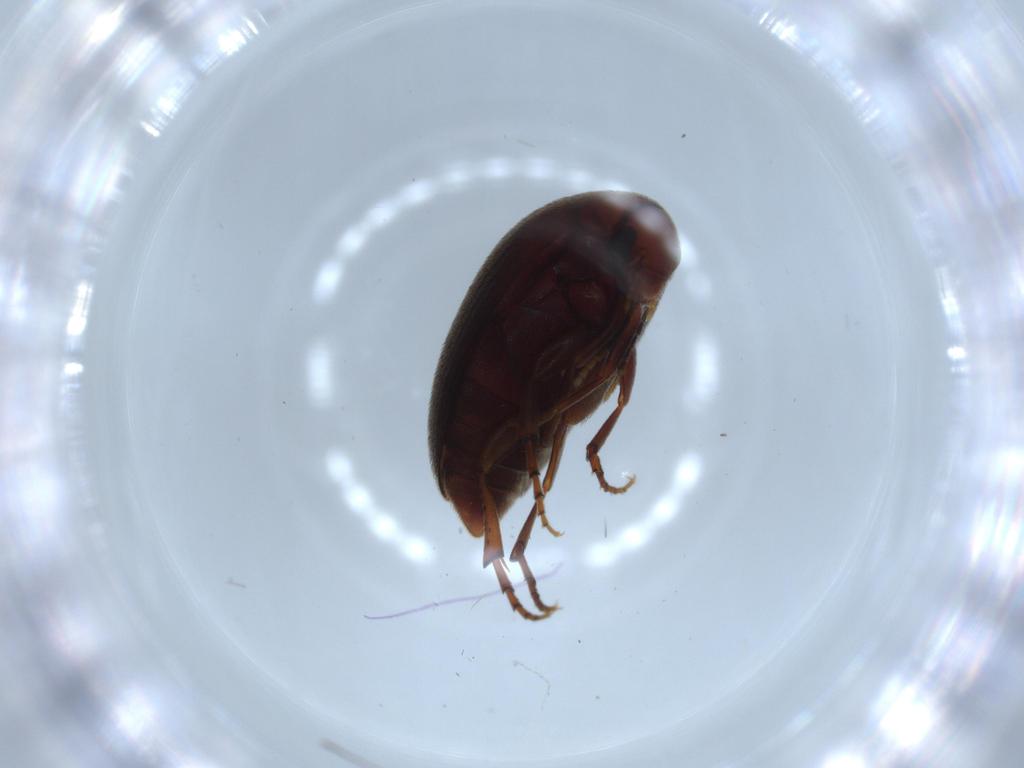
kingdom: Animalia
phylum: Arthropoda
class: Insecta
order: Coleoptera
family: Eucinetidae
